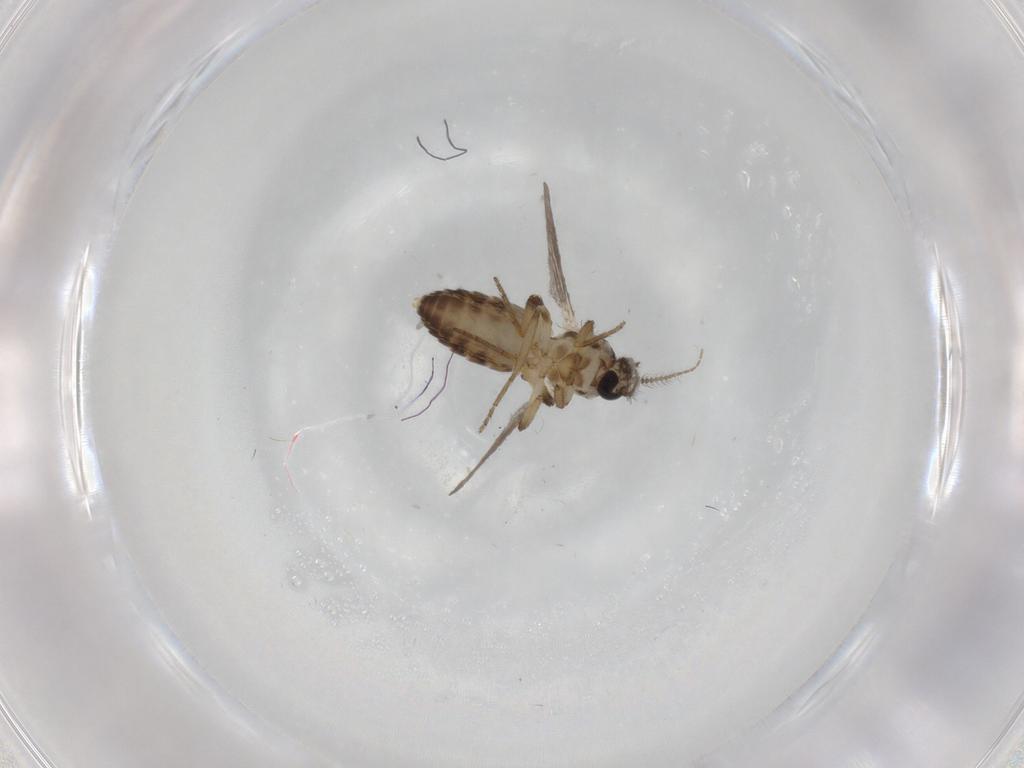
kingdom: Animalia
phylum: Arthropoda
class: Insecta
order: Diptera
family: Ceratopogonidae
